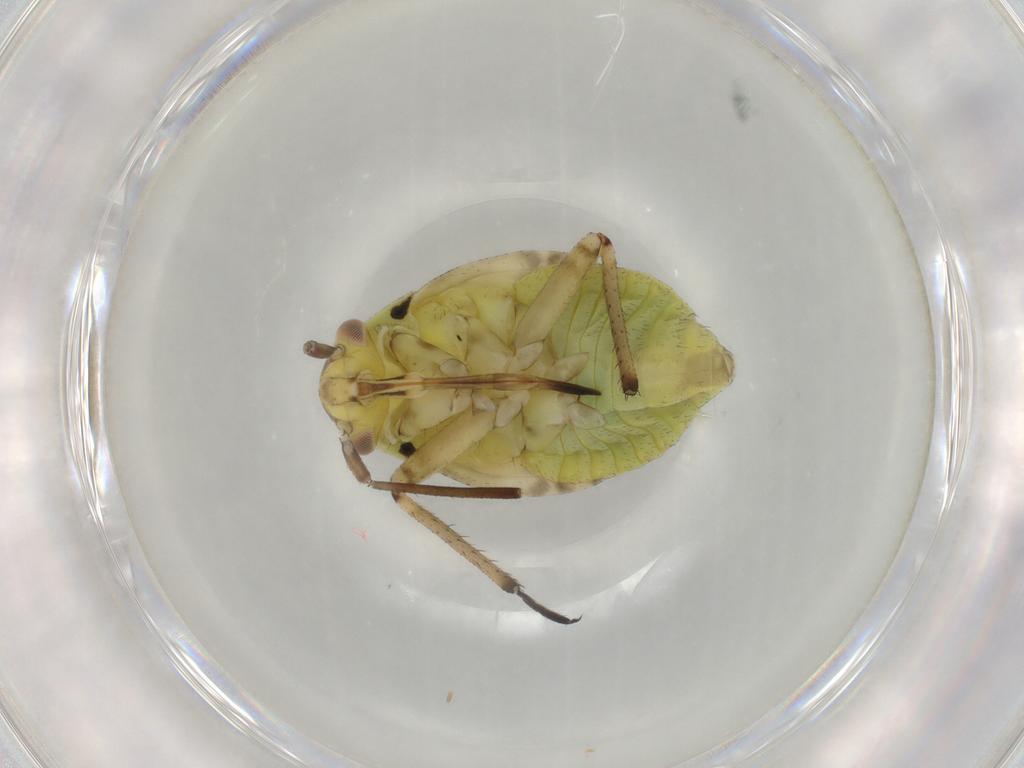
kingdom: Animalia
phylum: Arthropoda
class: Insecta
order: Hemiptera
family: Miridae
